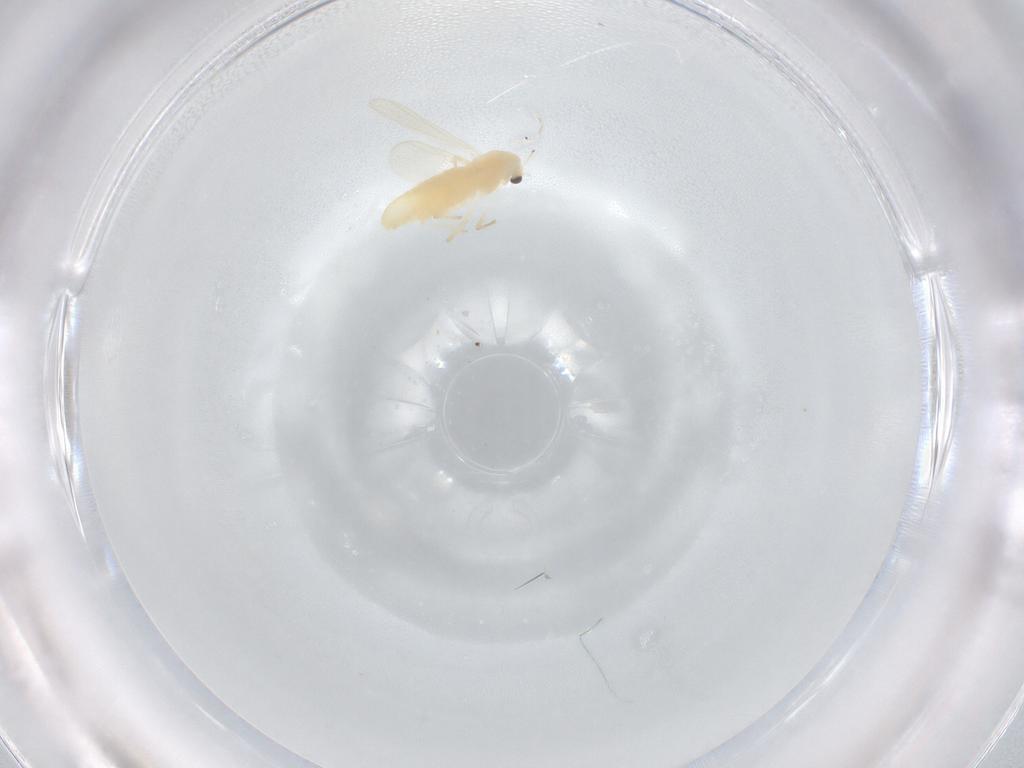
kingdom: Animalia
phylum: Arthropoda
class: Insecta
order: Diptera
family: Chironomidae
